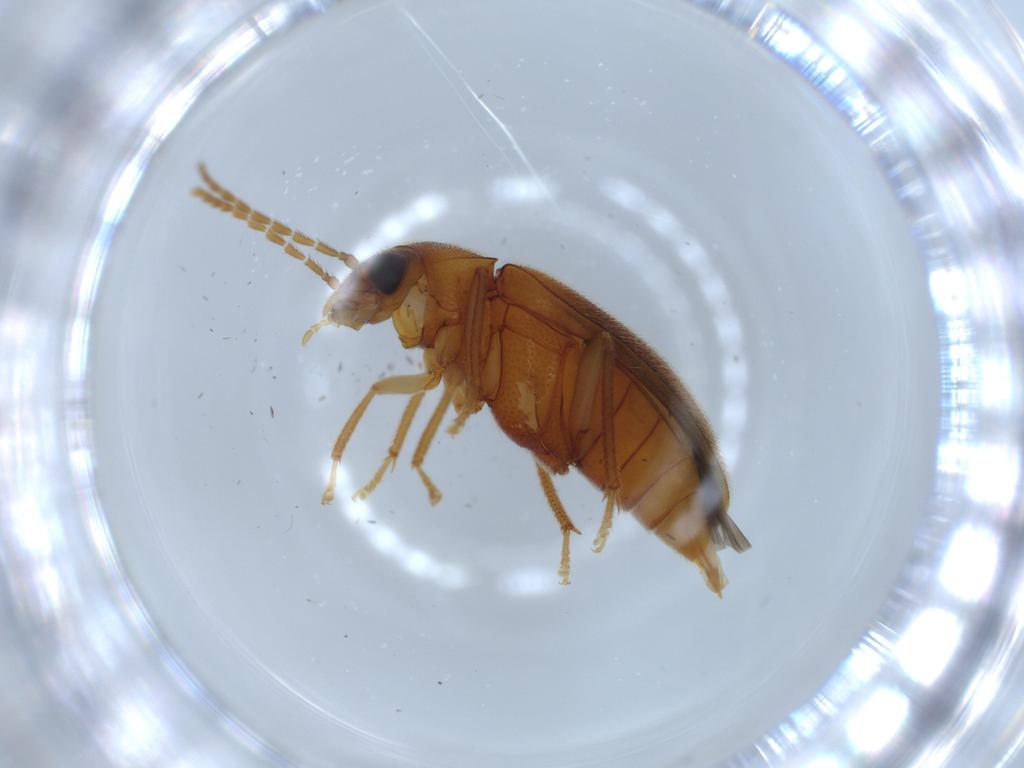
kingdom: Animalia
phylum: Arthropoda
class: Insecta
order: Coleoptera
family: Ptilodactylidae
